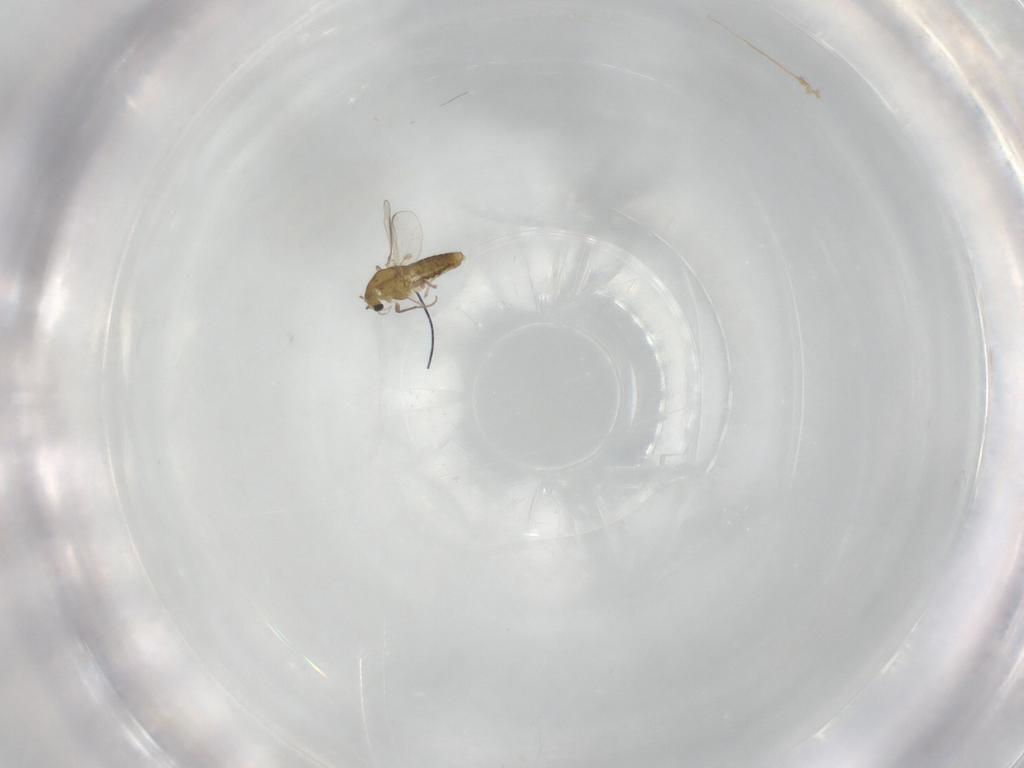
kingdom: Animalia
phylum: Arthropoda
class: Insecta
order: Diptera
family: Chironomidae
